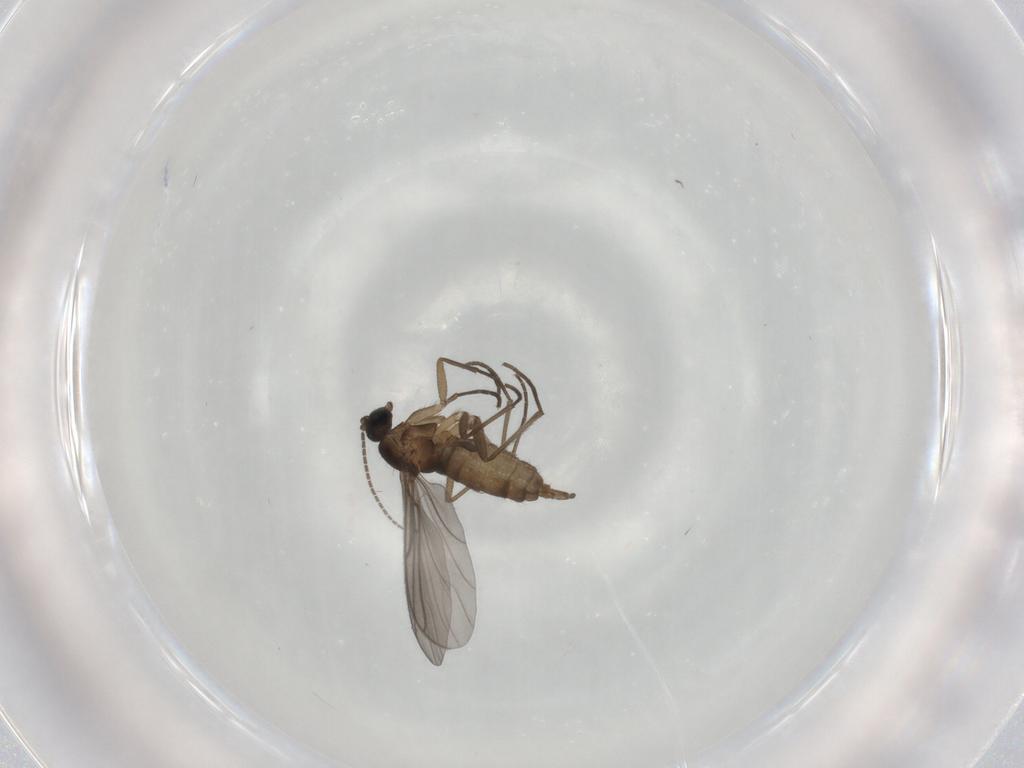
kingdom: Animalia
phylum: Arthropoda
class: Insecta
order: Diptera
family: Sciaridae
